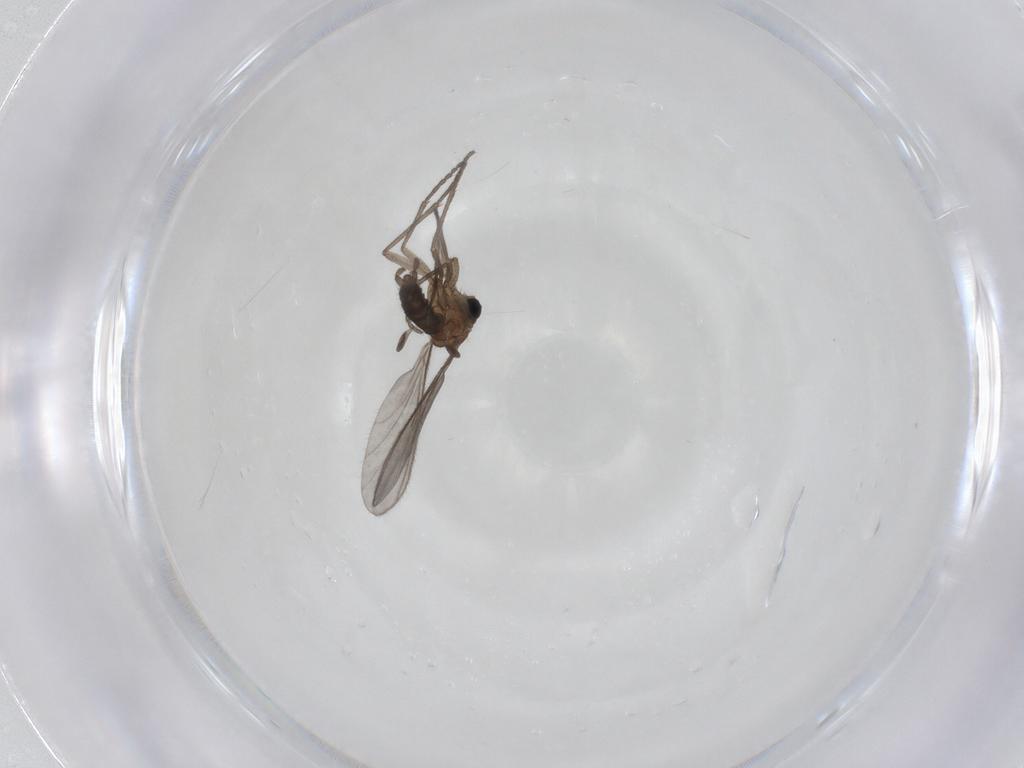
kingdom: Animalia
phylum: Arthropoda
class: Insecta
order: Diptera
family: Sciaridae
